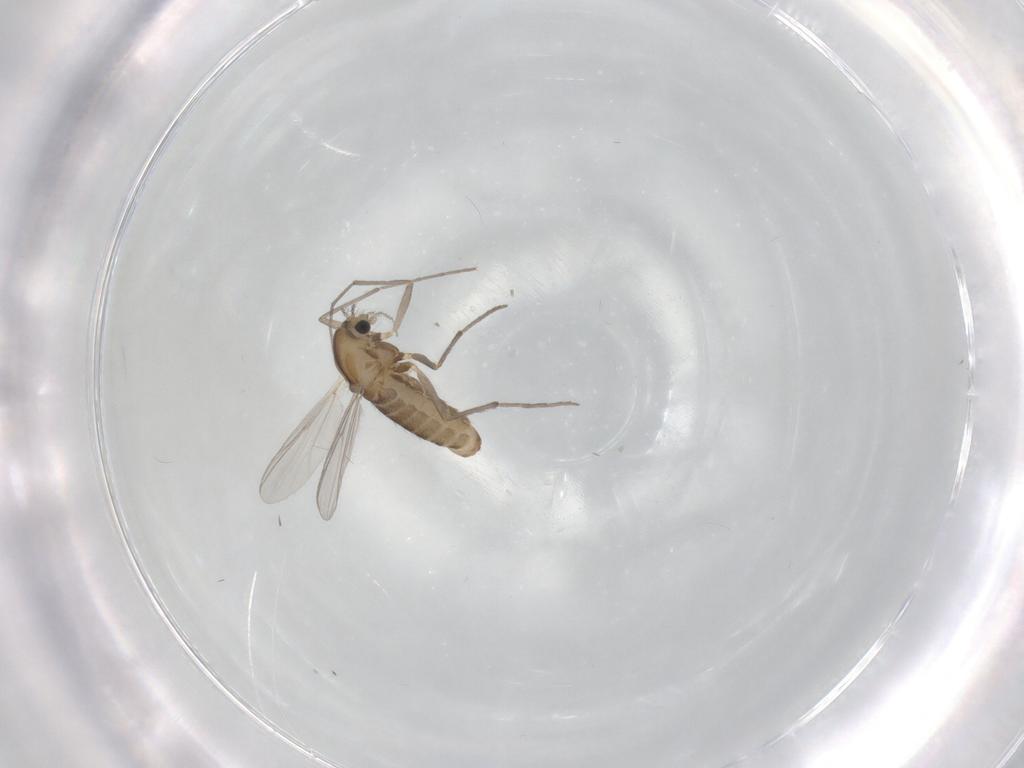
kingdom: Animalia
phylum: Arthropoda
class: Insecta
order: Diptera
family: Chironomidae
